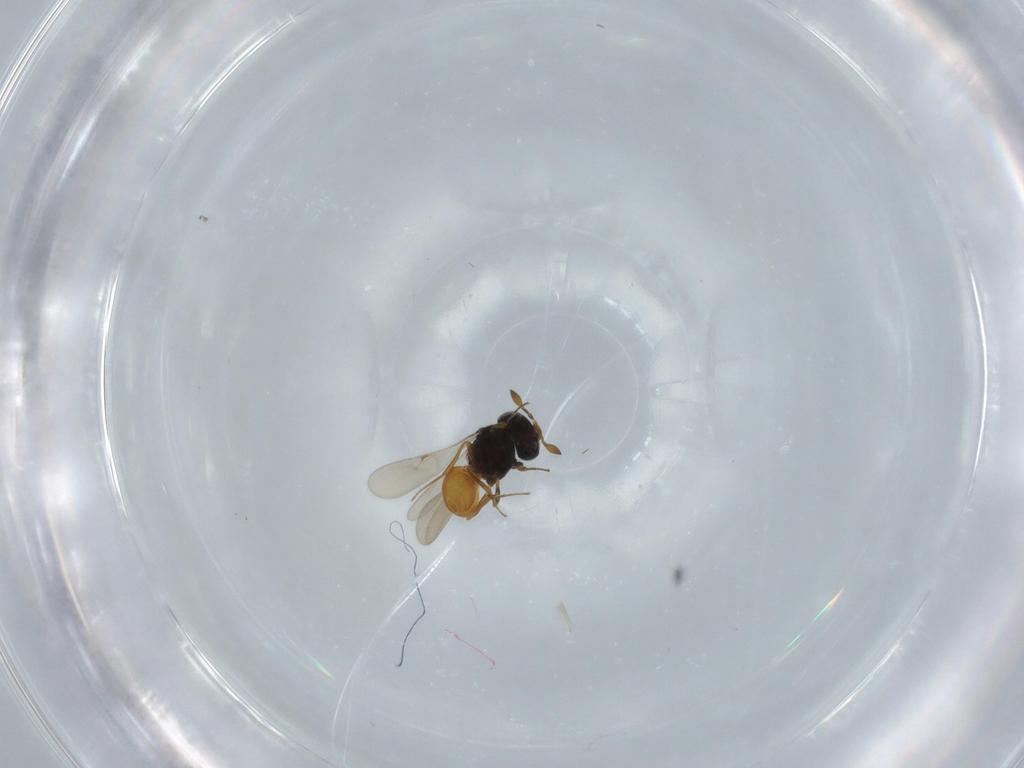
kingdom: Animalia
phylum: Arthropoda
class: Insecta
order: Hymenoptera
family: Scelionidae
